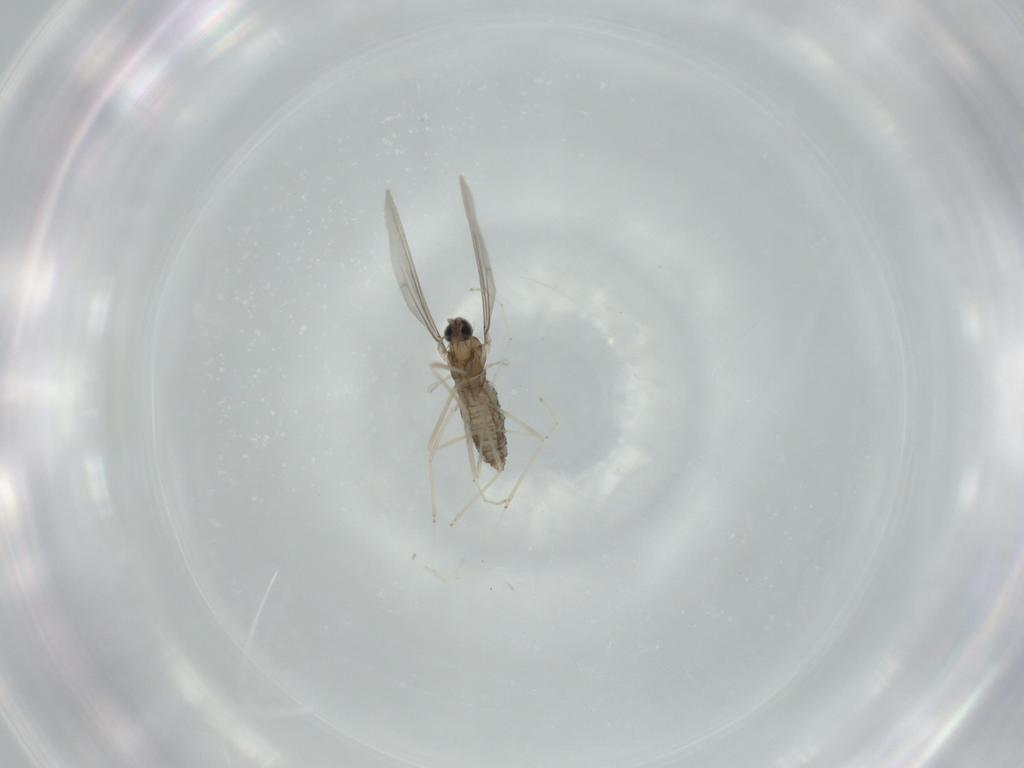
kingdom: Animalia
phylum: Arthropoda
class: Insecta
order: Diptera
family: Cecidomyiidae
